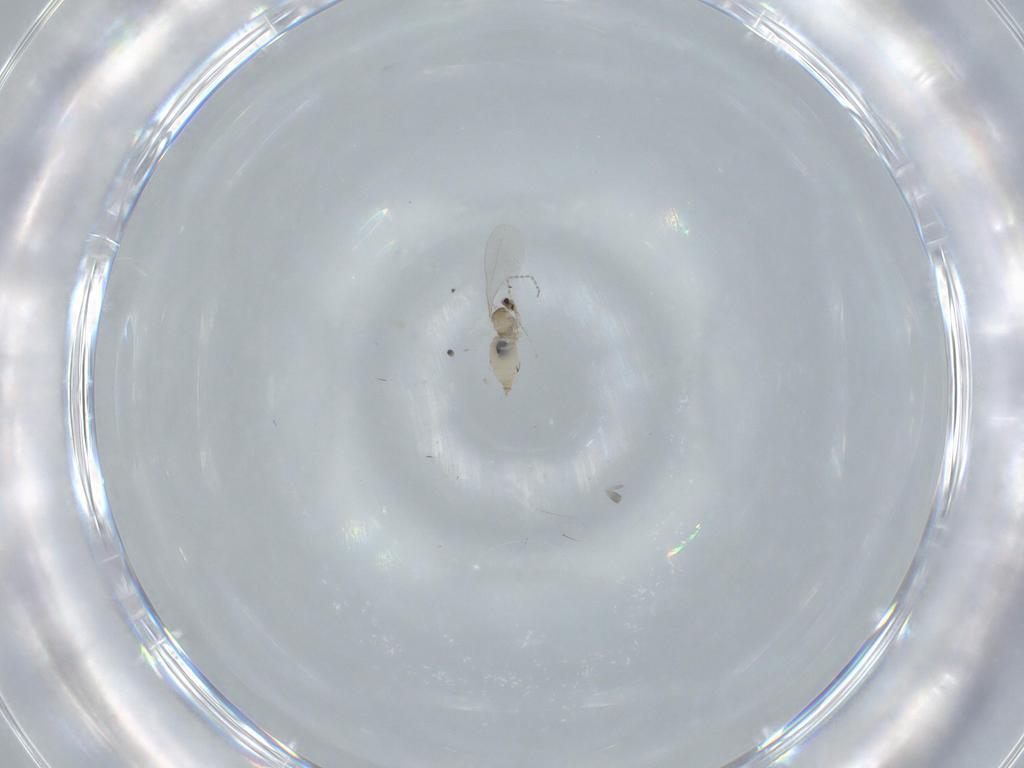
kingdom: Animalia
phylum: Arthropoda
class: Insecta
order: Diptera
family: Cecidomyiidae
